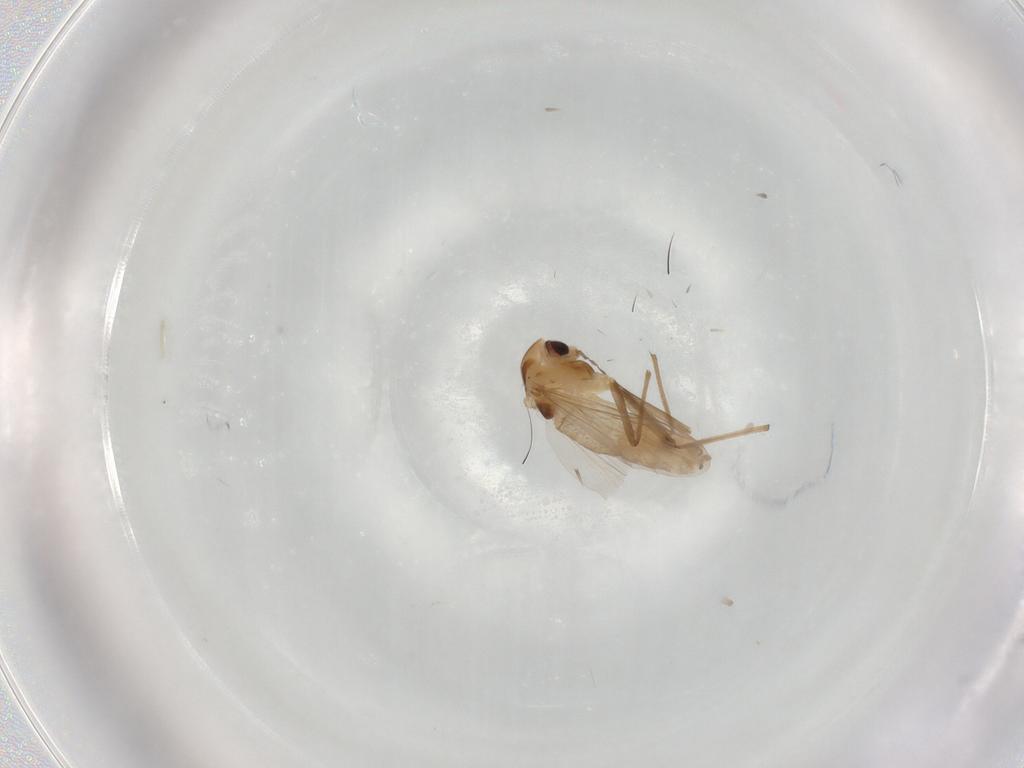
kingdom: Animalia
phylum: Arthropoda
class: Insecta
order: Diptera
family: Chironomidae
